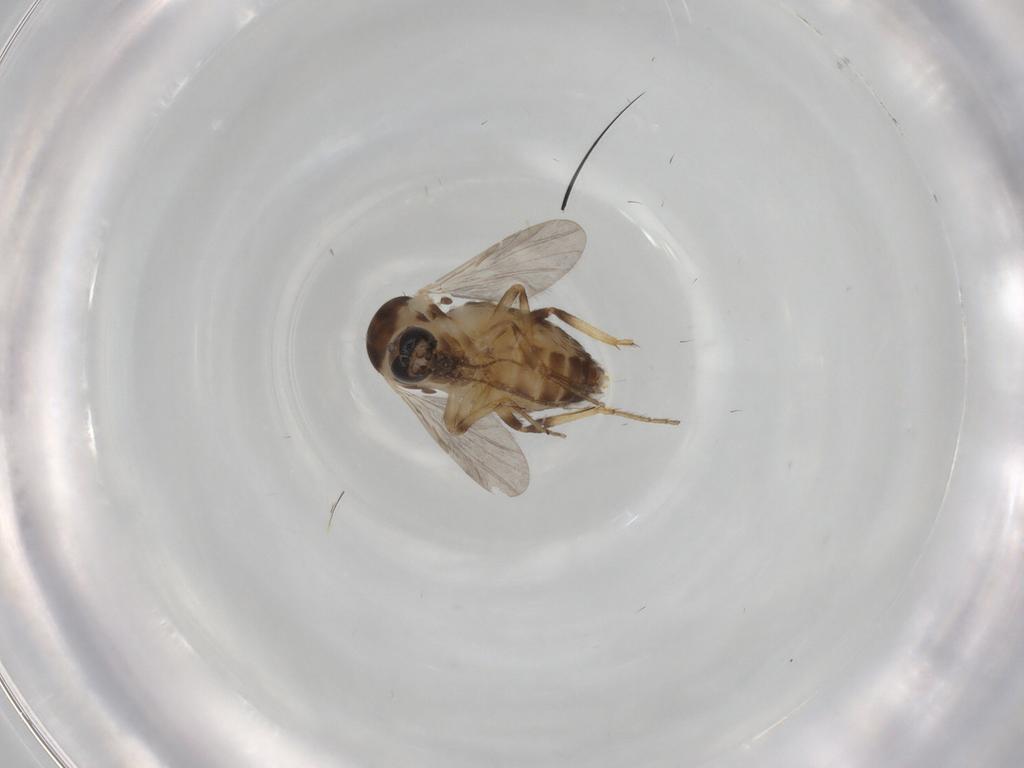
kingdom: Animalia
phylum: Arthropoda
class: Insecta
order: Diptera
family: Ceratopogonidae
